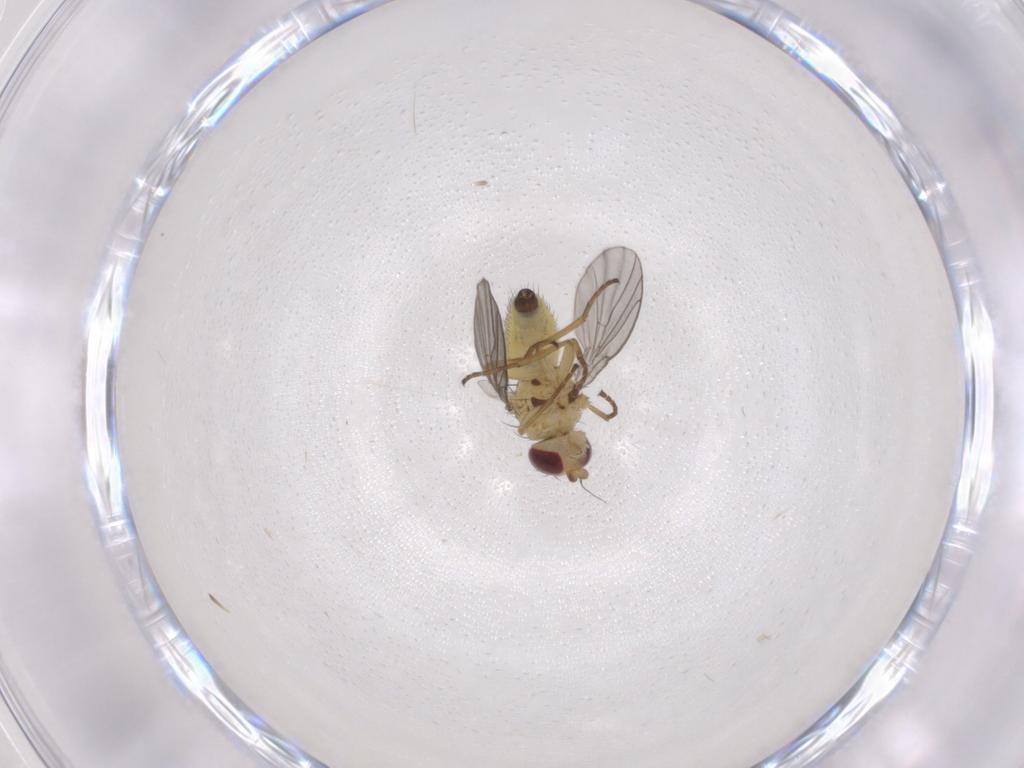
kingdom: Animalia
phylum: Arthropoda
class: Insecta
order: Diptera
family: Agromyzidae
